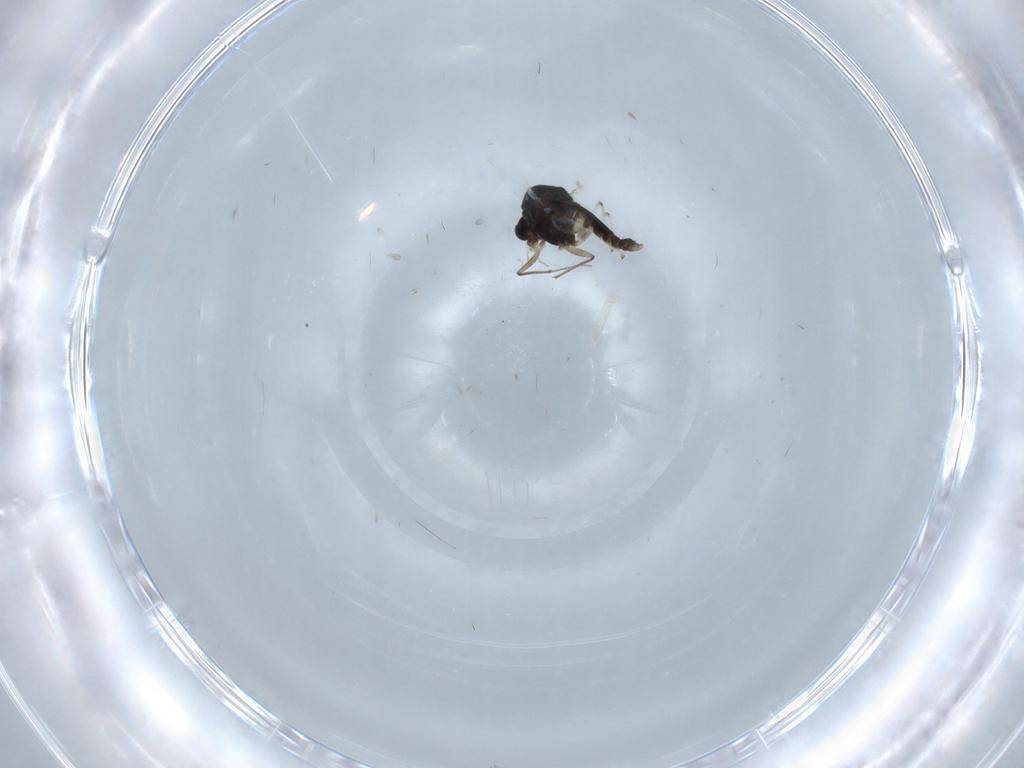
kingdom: Animalia
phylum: Arthropoda
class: Insecta
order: Diptera
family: Chironomidae
